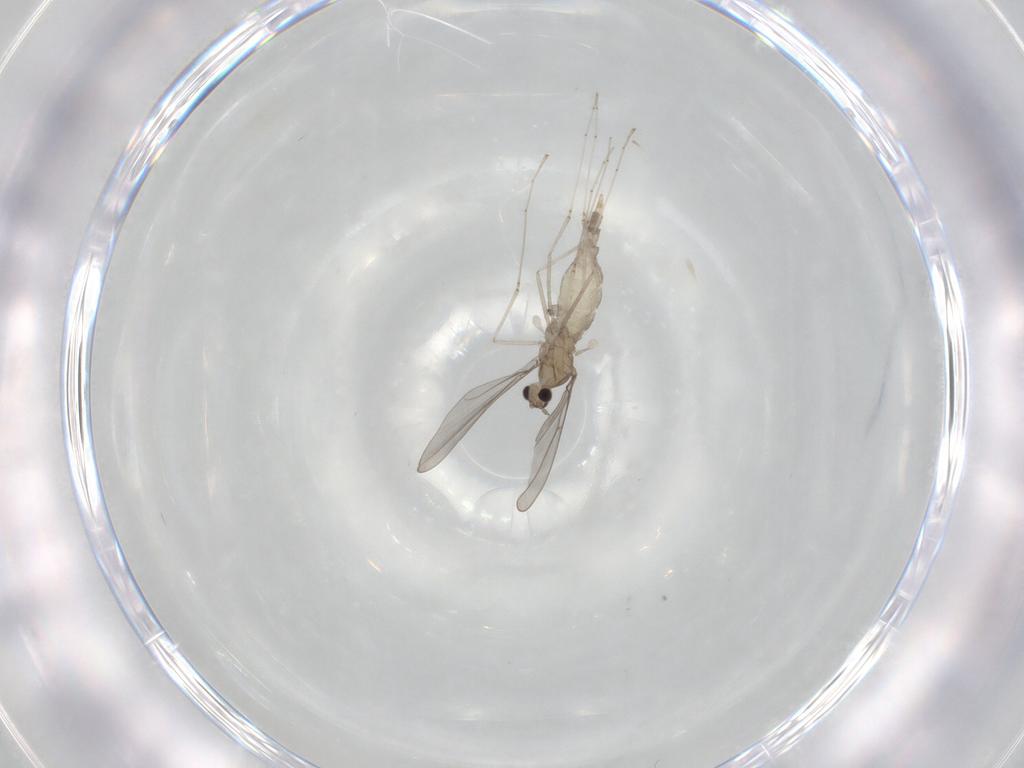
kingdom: Animalia
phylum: Arthropoda
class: Insecta
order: Diptera
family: Cecidomyiidae
